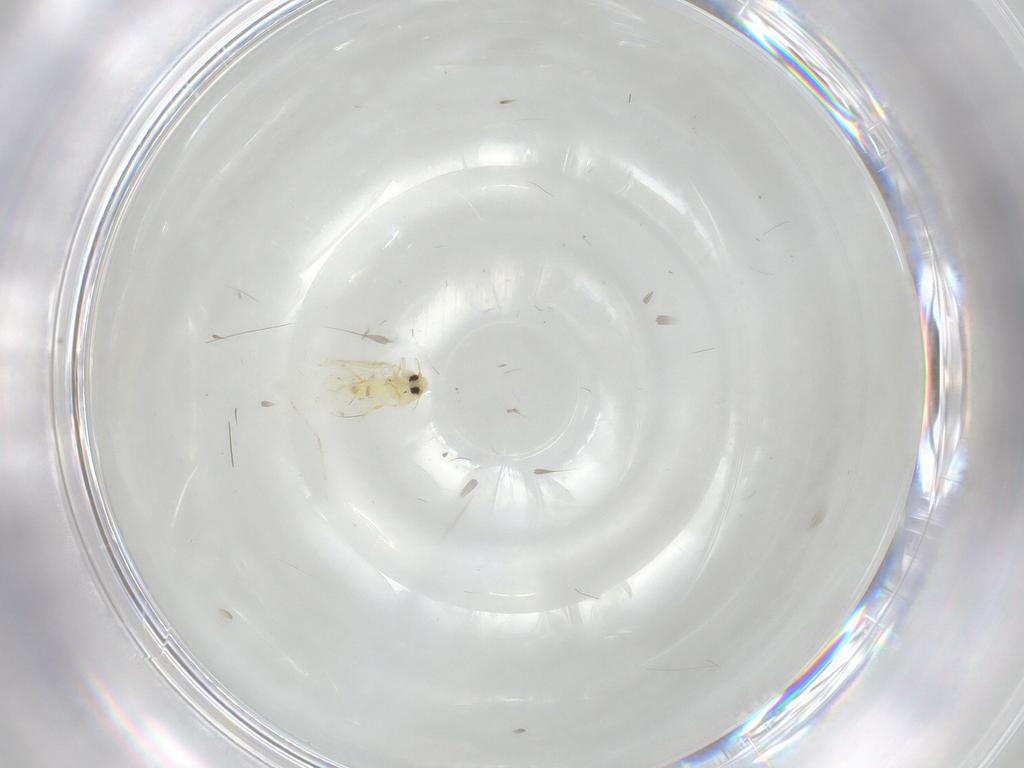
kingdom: Animalia
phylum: Arthropoda
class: Insecta
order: Hemiptera
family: Aleyrodidae
